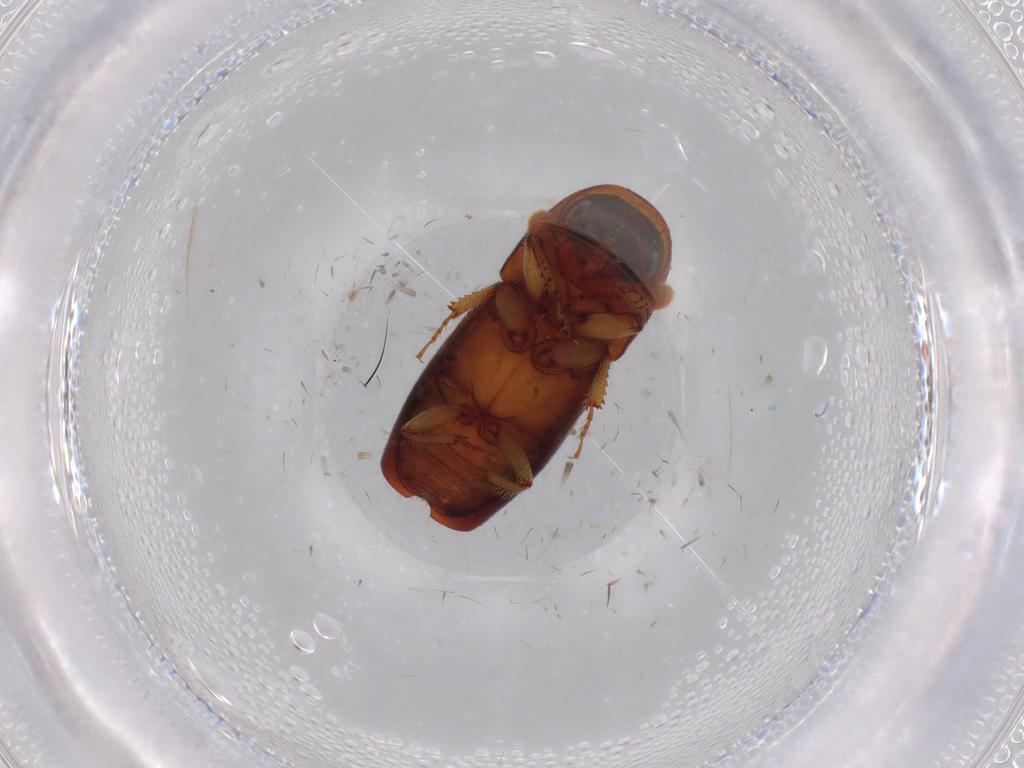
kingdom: Animalia
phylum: Arthropoda
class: Insecta
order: Coleoptera
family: Curculionidae
